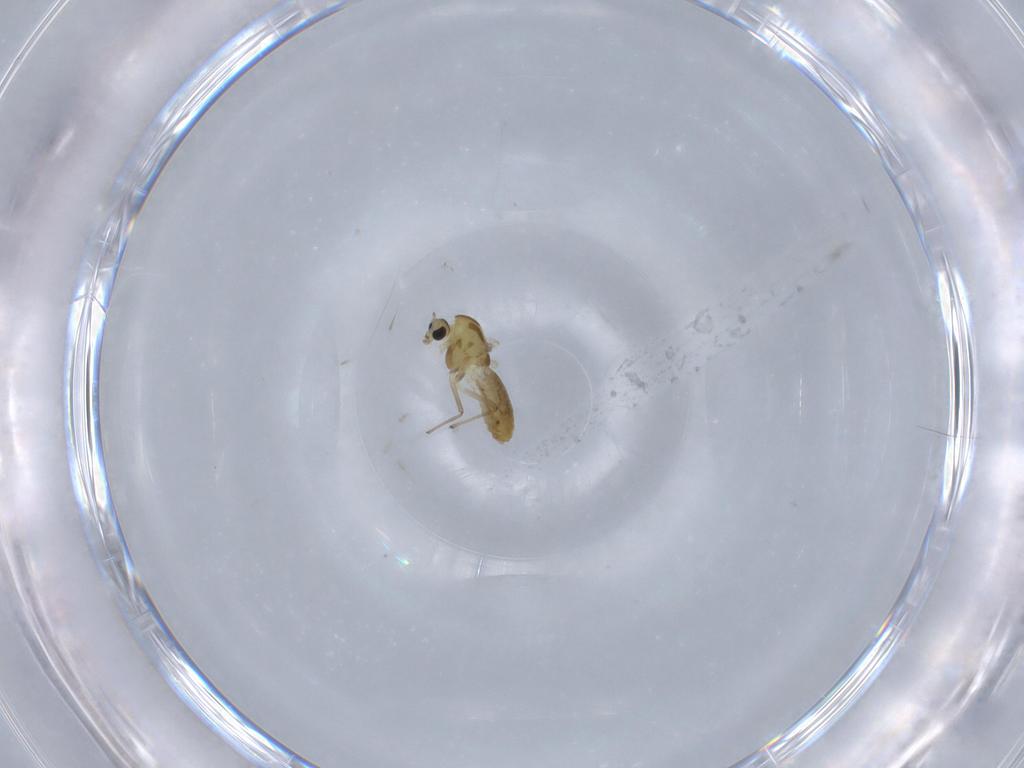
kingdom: Animalia
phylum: Arthropoda
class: Insecta
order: Diptera
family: Chironomidae
